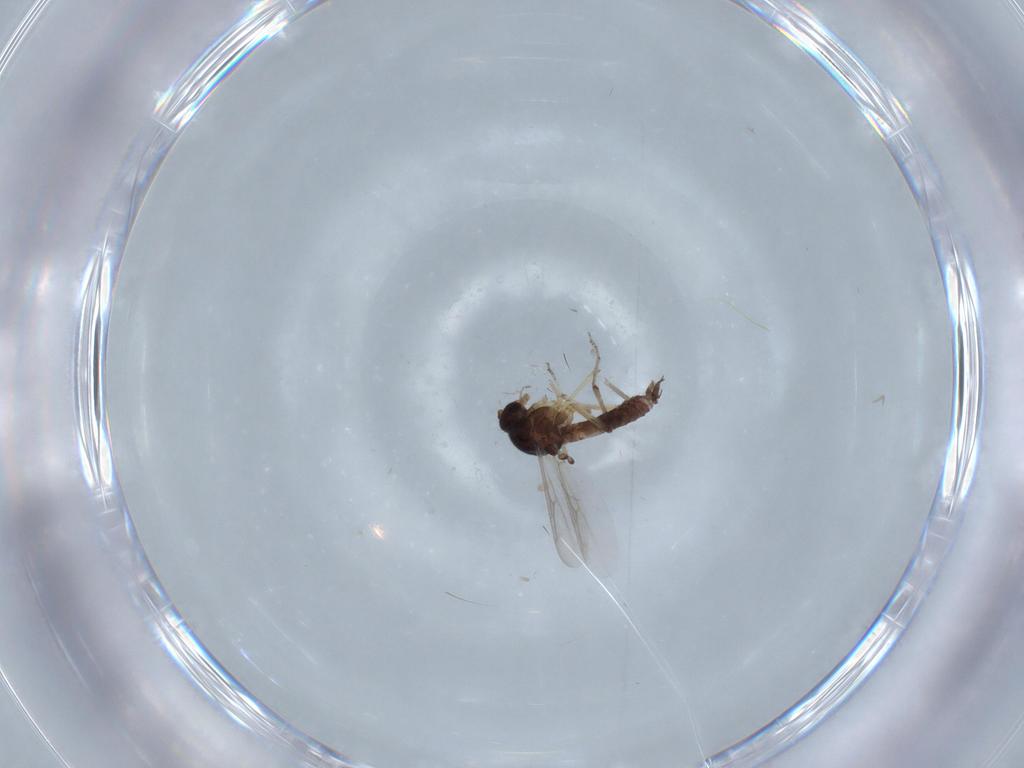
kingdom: Animalia
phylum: Arthropoda
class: Insecta
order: Diptera
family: Ceratopogonidae
